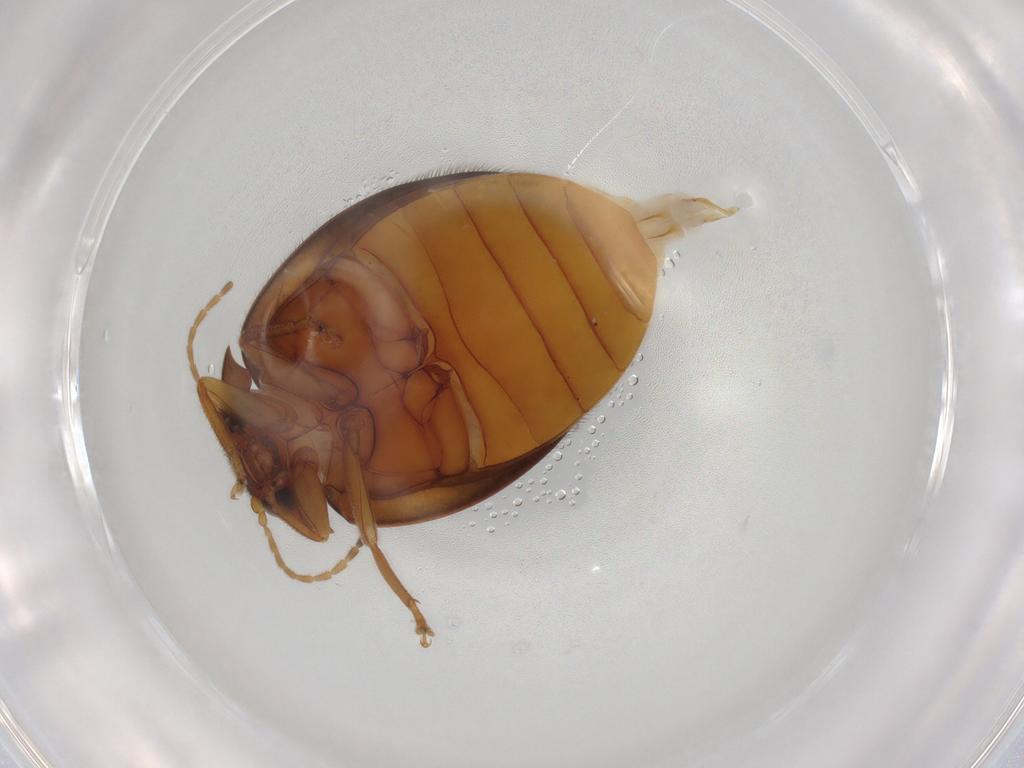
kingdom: Animalia
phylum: Arthropoda
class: Insecta
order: Coleoptera
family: Scirtidae
